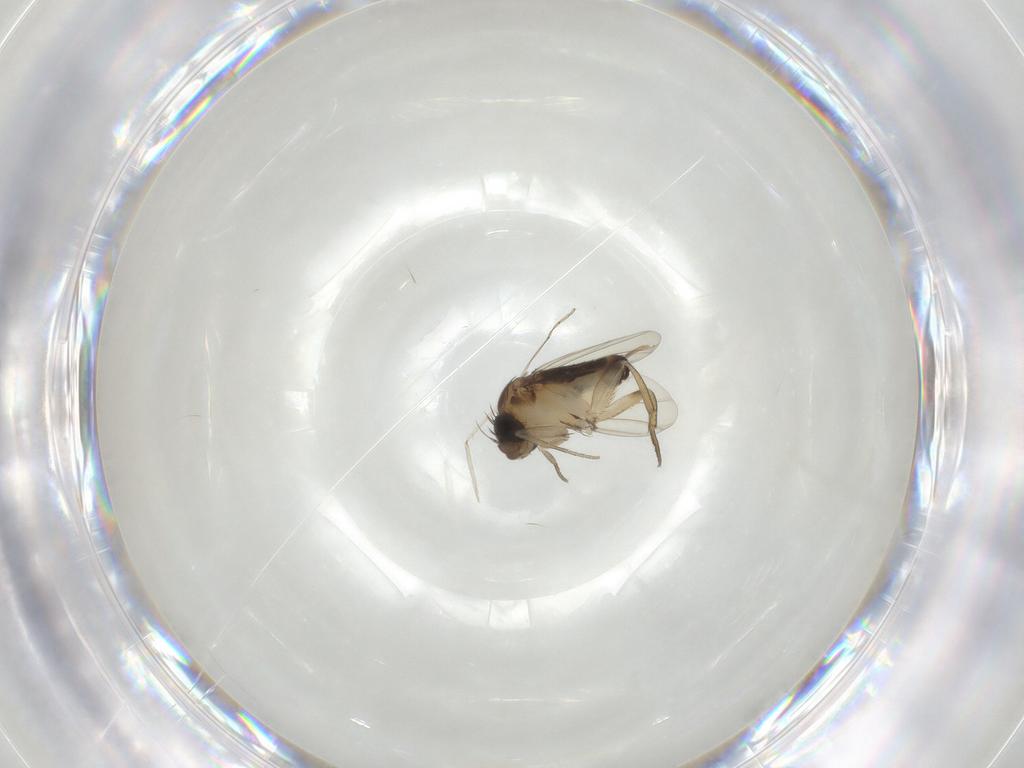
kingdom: Animalia
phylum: Arthropoda
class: Insecta
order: Diptera
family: Phoridae
